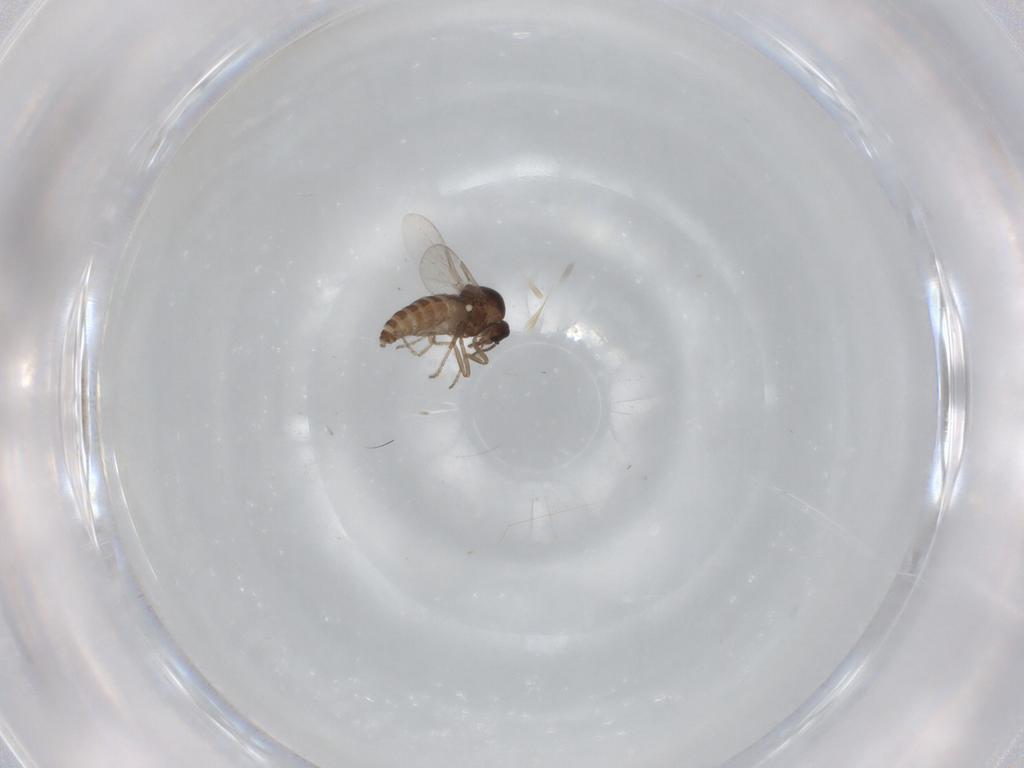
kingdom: Animalia
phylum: Arthropoda
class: Insecta
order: Diptera
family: Ceratopogonidae
